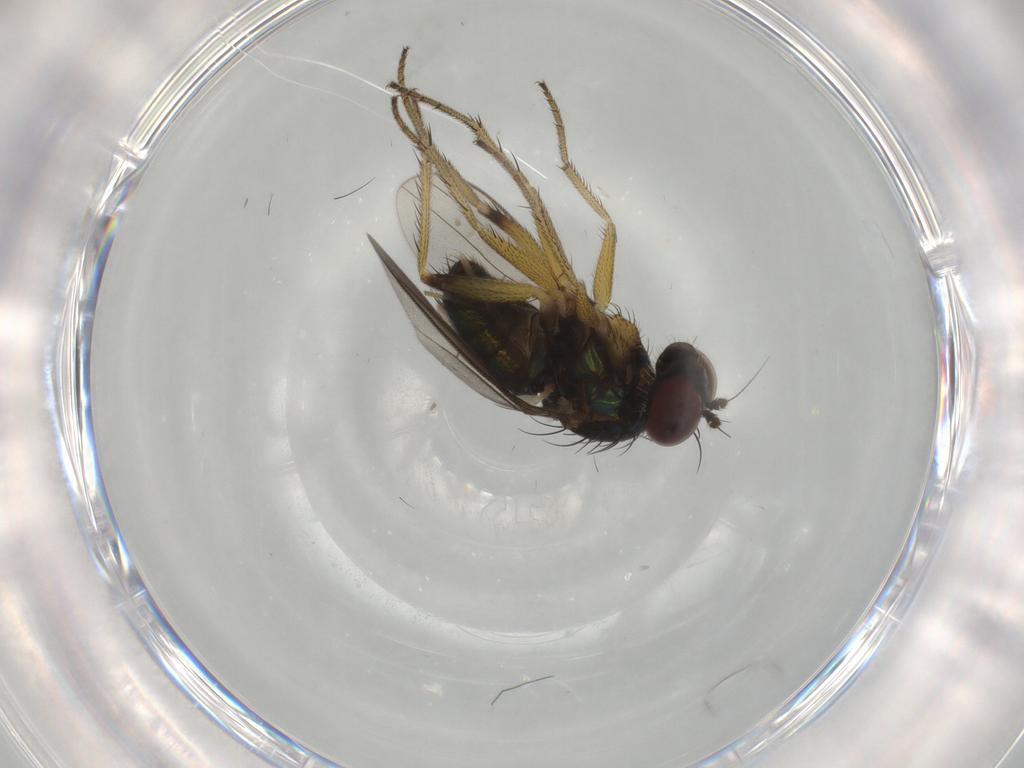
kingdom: Animalia
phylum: Arthropoda
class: Insecta
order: Diptera
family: Dolichopodidae
